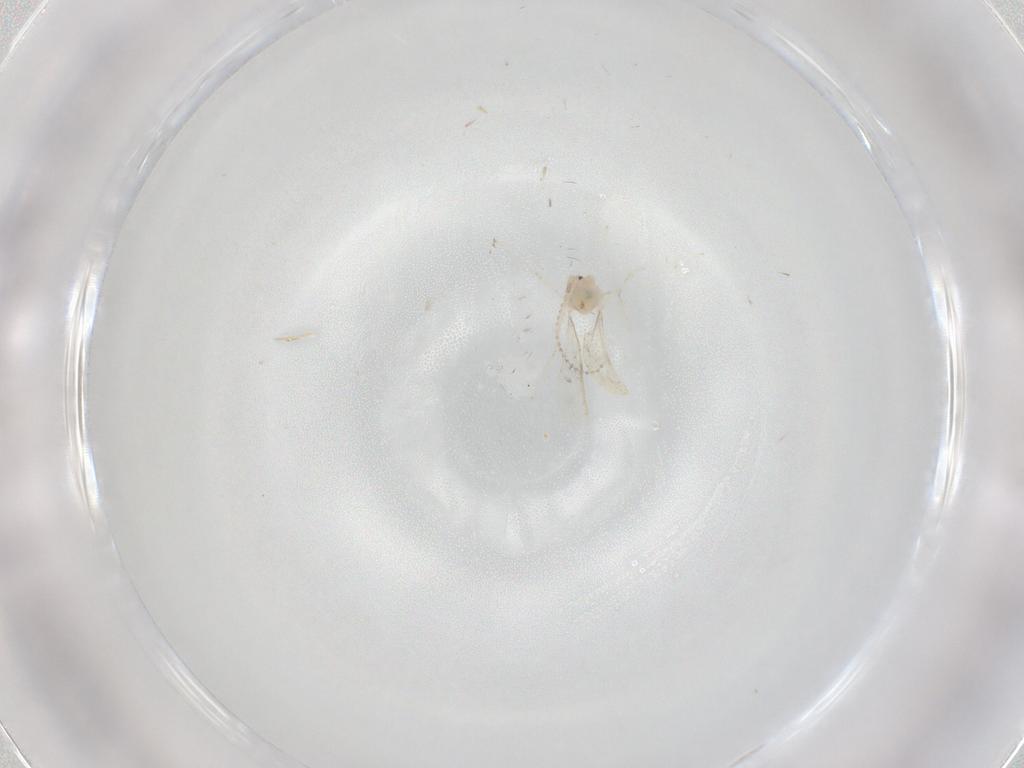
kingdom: Animalia
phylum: Arthropoda
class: Insecta
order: Diptera
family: Phoridae
